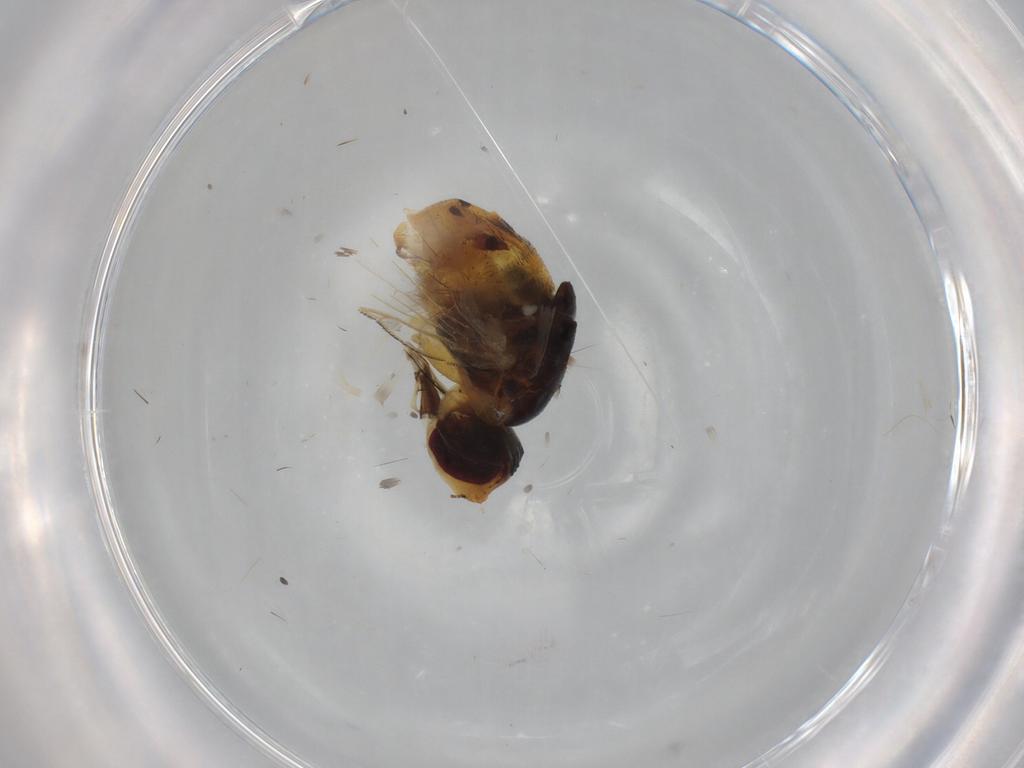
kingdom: Animalia
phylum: Arthropoda
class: Insecta
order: Diptera
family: Muscidae
